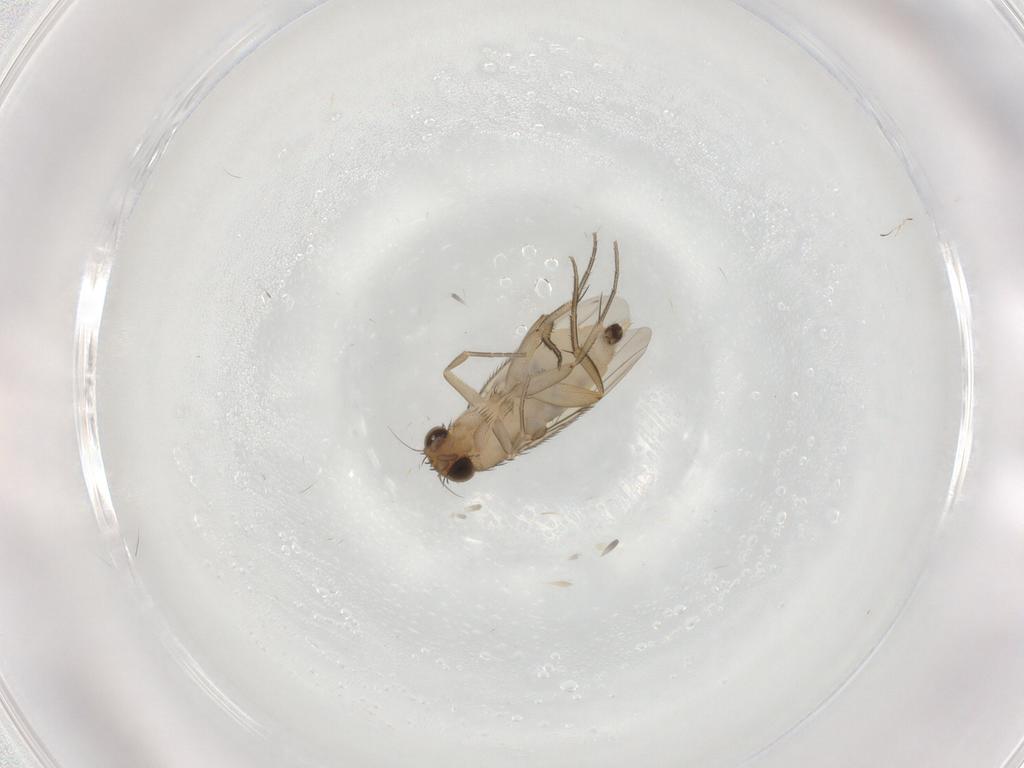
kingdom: Animalia
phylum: Arthropoda
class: Insecta
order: Diptera
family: Phoridae
